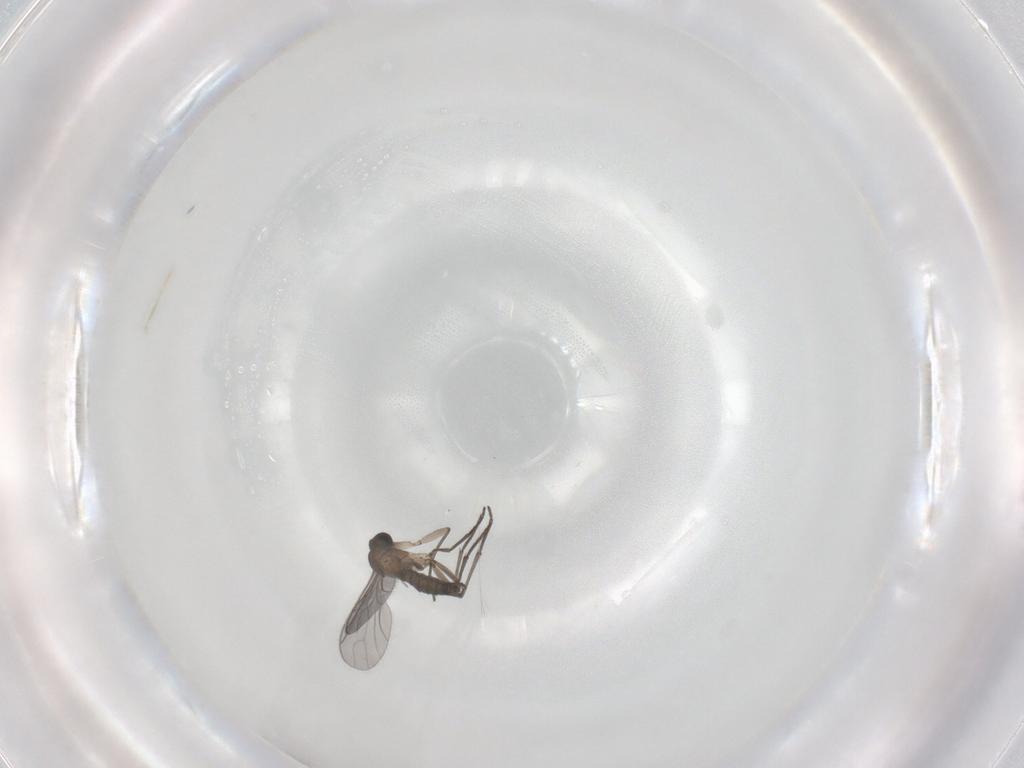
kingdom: Animalia
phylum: Arthropoda
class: Insecta
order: Diptera
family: Sciaridae
